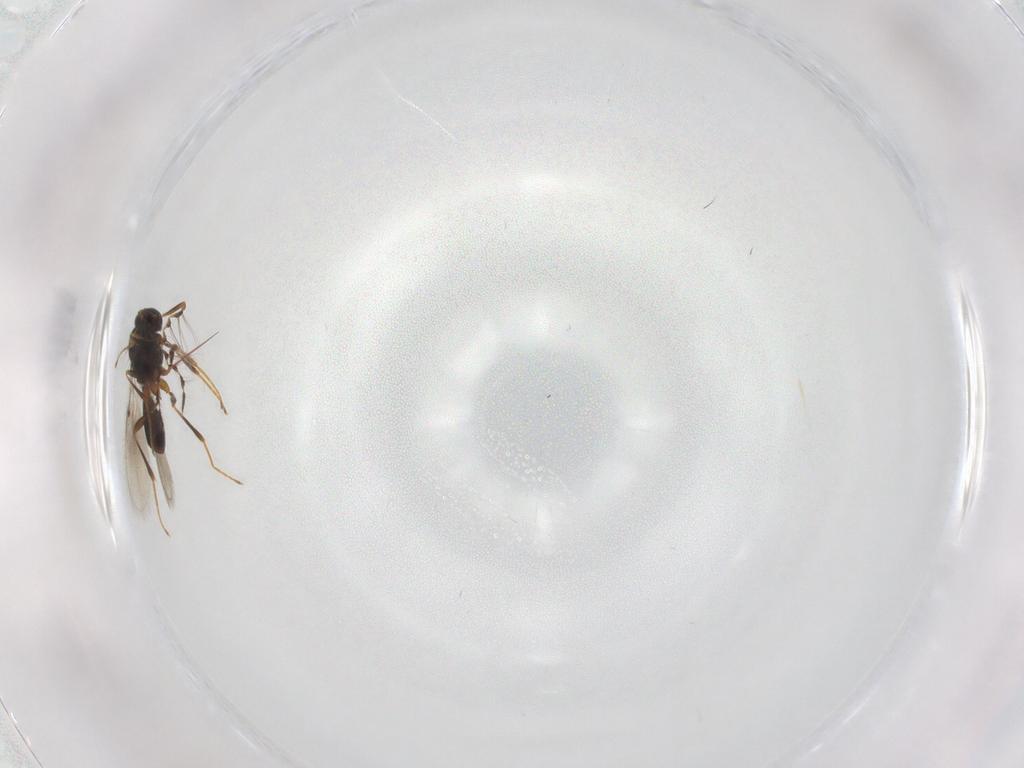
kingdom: Animalia
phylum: Arthropoda
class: Insecta
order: Hymenoptera
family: Platygastridae
